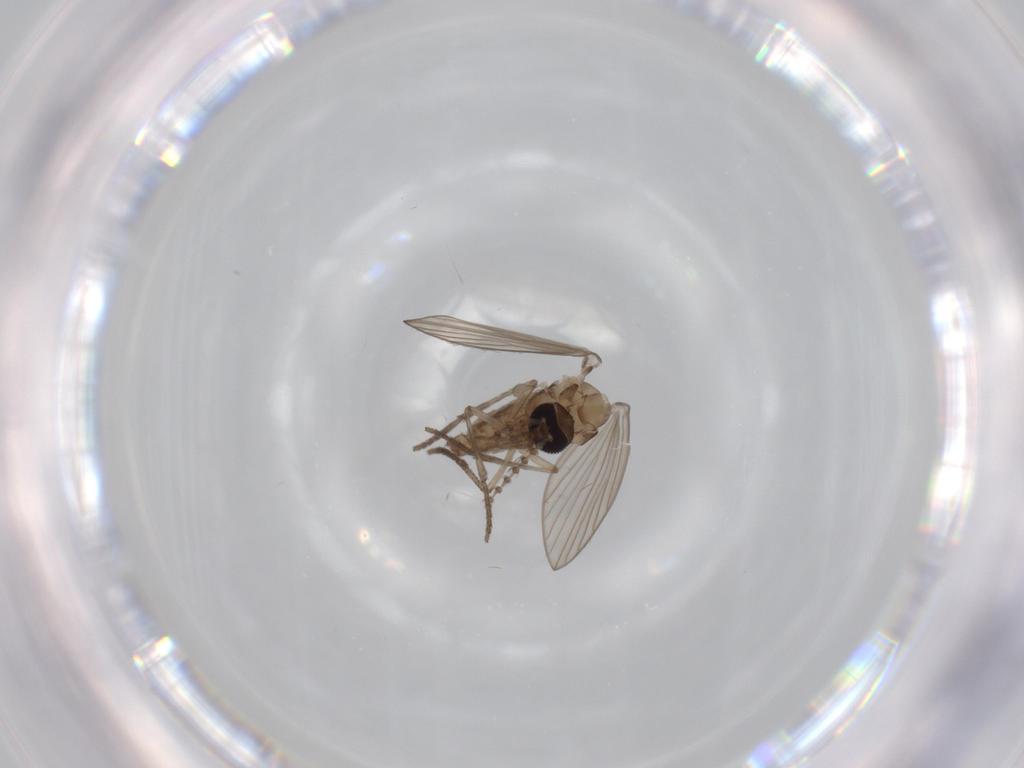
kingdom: Animalia
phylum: Arthropoda
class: Insecta
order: Diptera
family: Psychodidae
